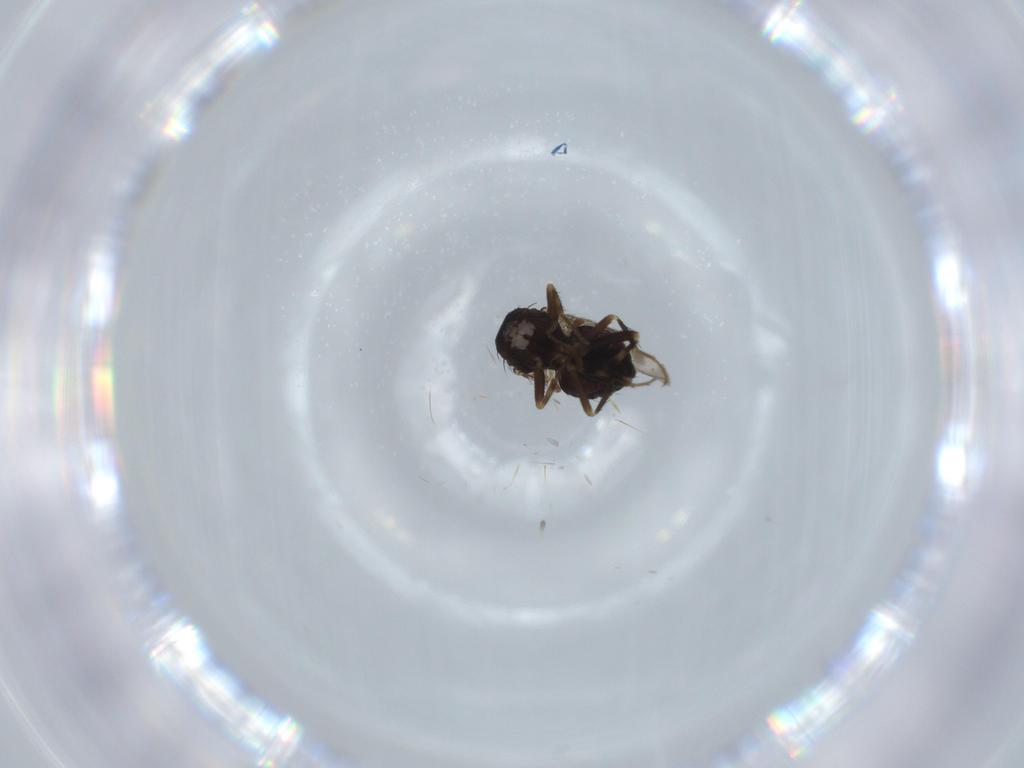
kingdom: Animalia
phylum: Arthropoda
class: Insecta
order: Diptera
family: Sphaeroceridae
